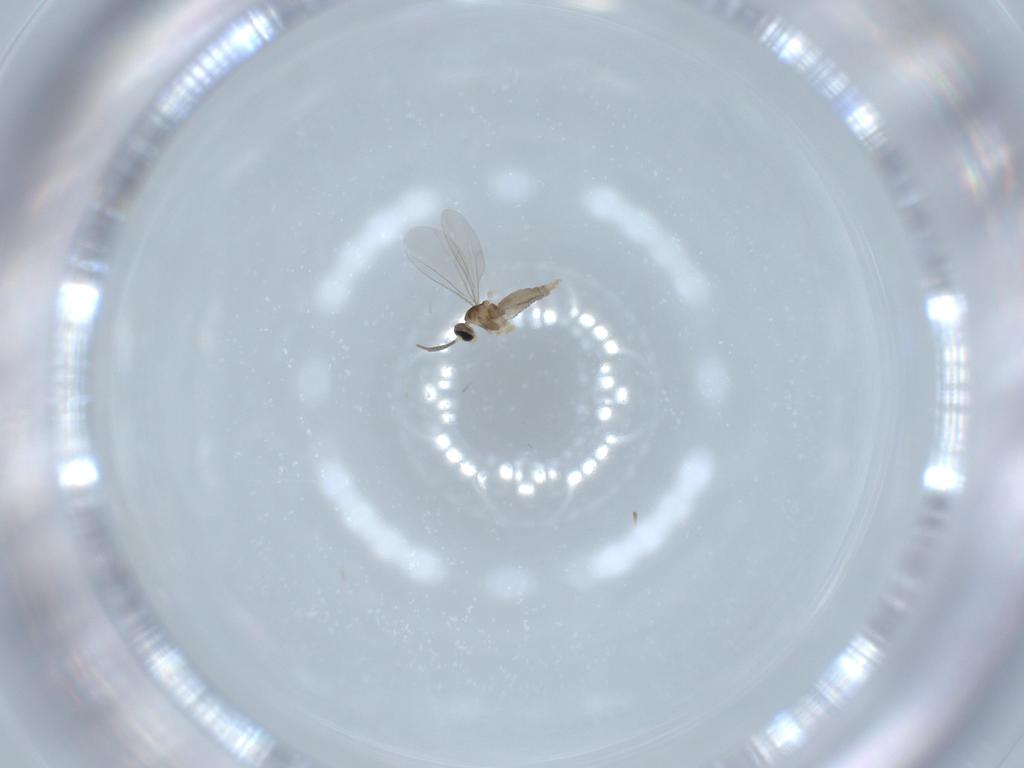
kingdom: Animalia
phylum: Arthropoda
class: Insecta
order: Diptera
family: Cecidomyiidae
